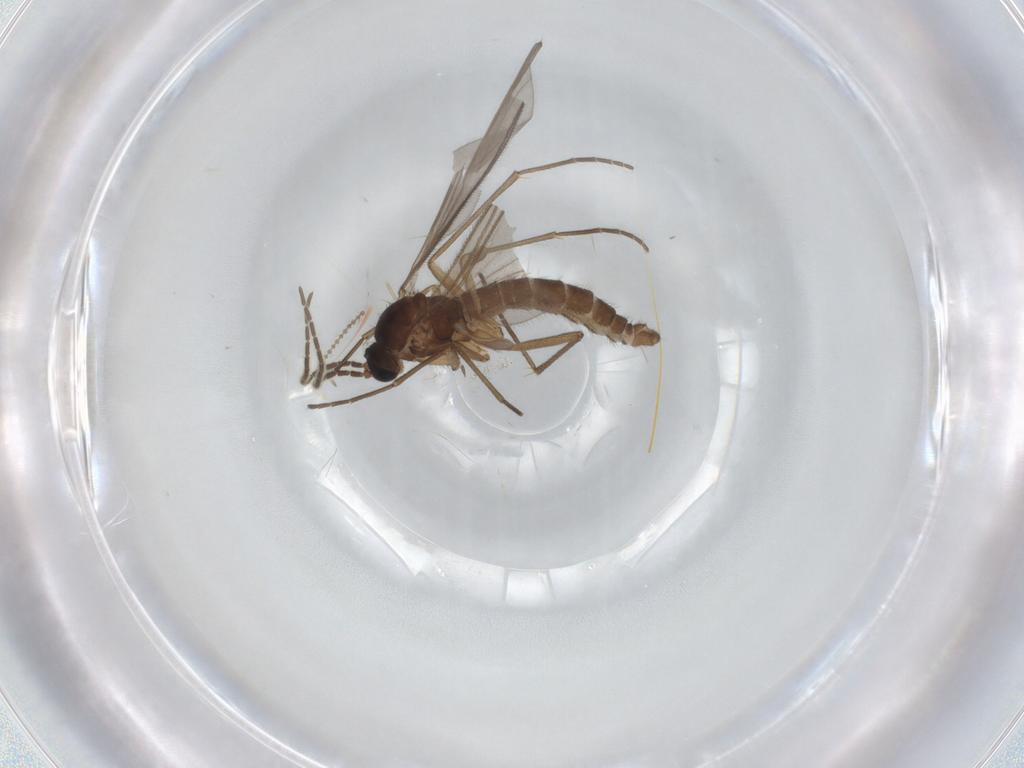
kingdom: Animalia
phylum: Arthropoda
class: Insecta
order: Diptera
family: Sciaridae
